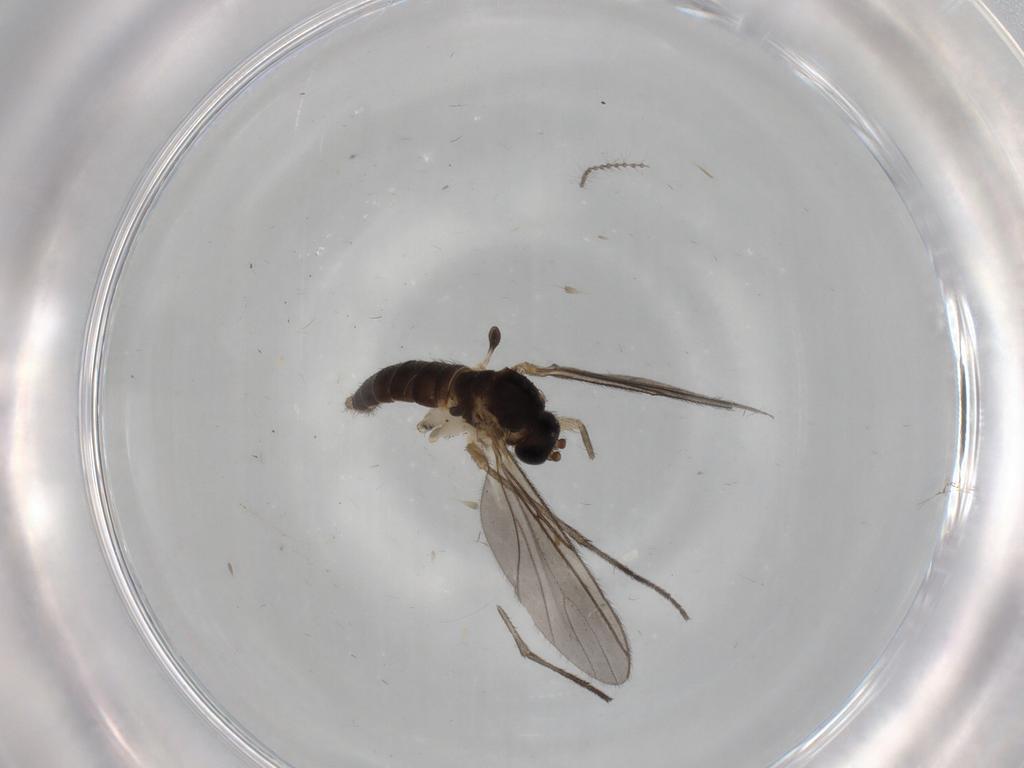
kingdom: Animalia
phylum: Arthropoda
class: Insecta
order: Diptera
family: Sciaridae
